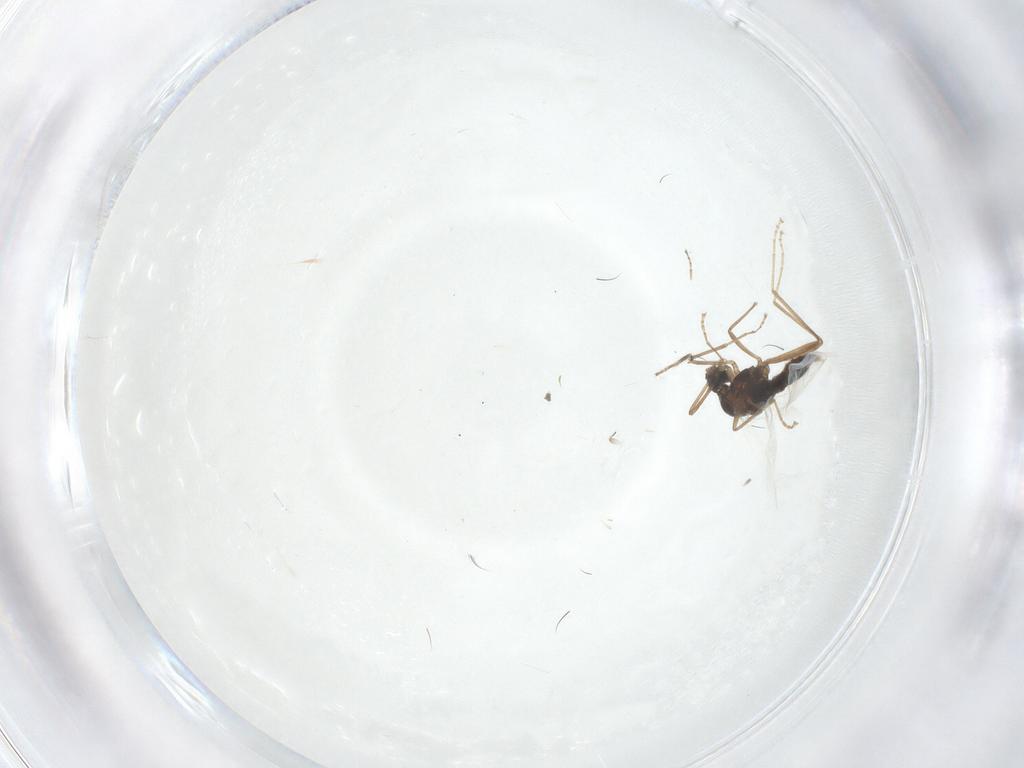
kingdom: Animalia
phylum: Arthropoda
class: Insecta
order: Diptera
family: Cecidomyiidae
